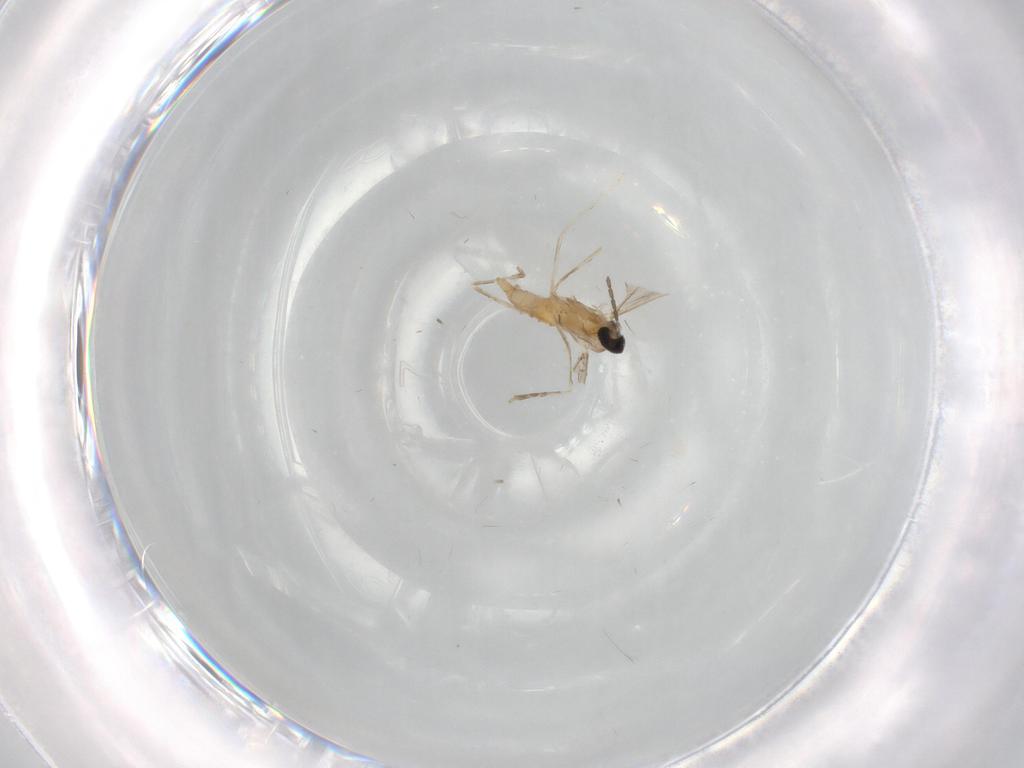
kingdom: Animalia
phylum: Arthropoda
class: Insecta
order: Diptera
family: Cecidomyiidae
